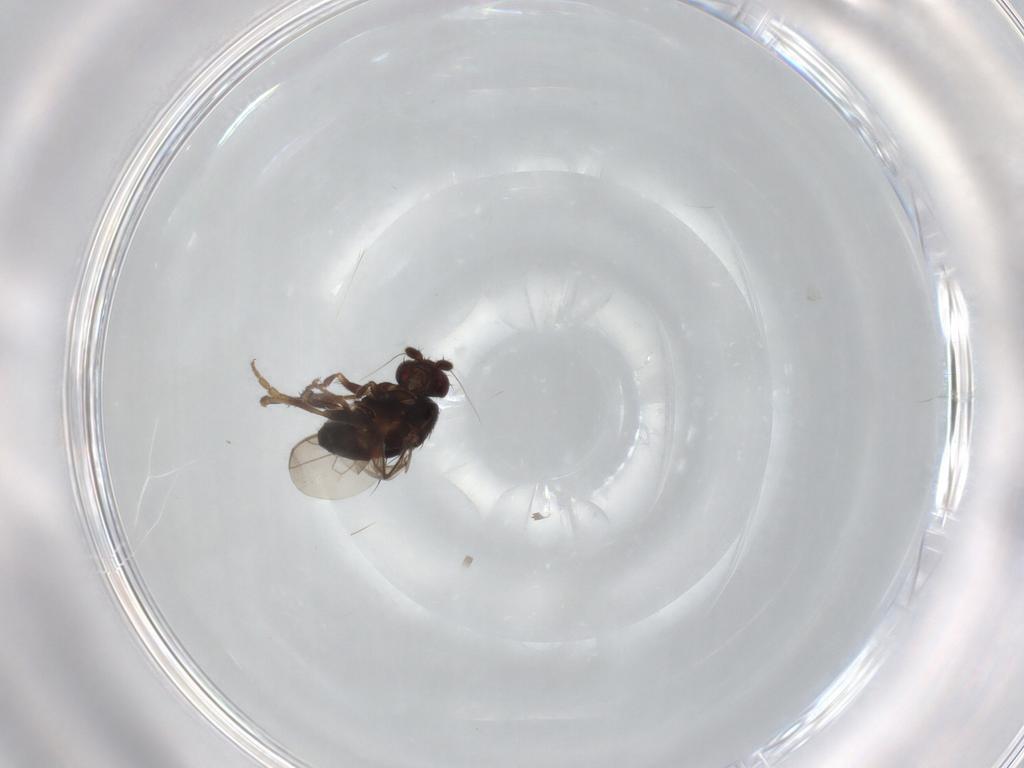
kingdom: Animalia
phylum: Arthropoda
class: Insecta
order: Diptera
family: Sphaeroceridae
